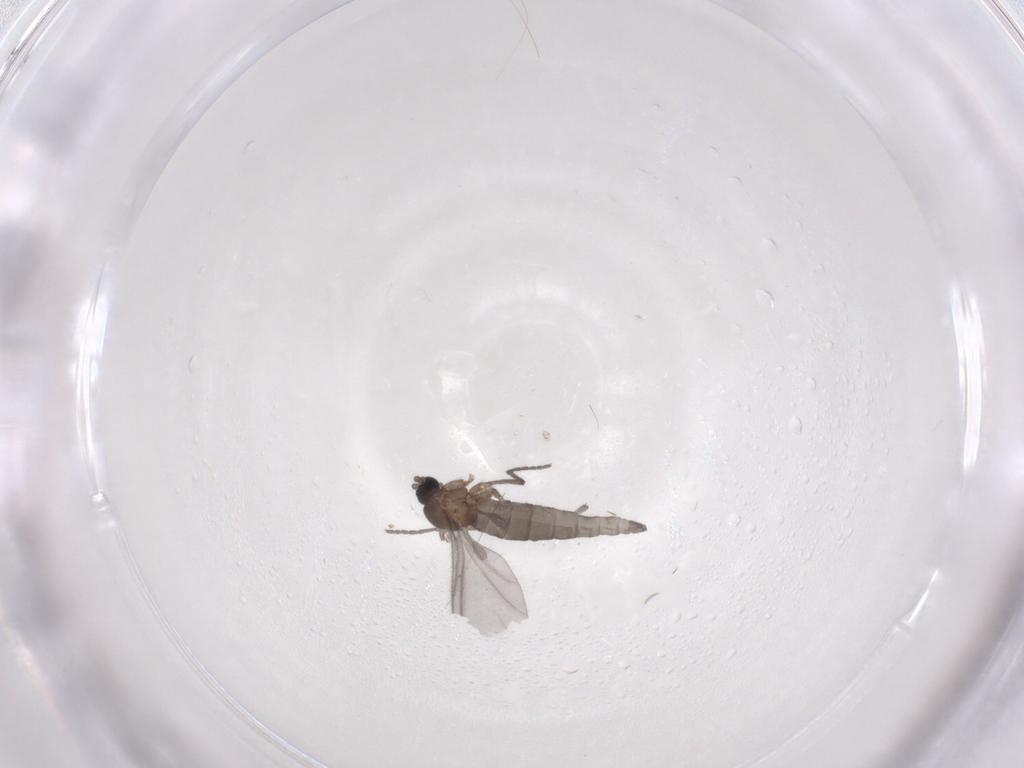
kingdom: Animalia
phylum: Arthropoda
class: Insecta
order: Diptera
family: Sciaridae
